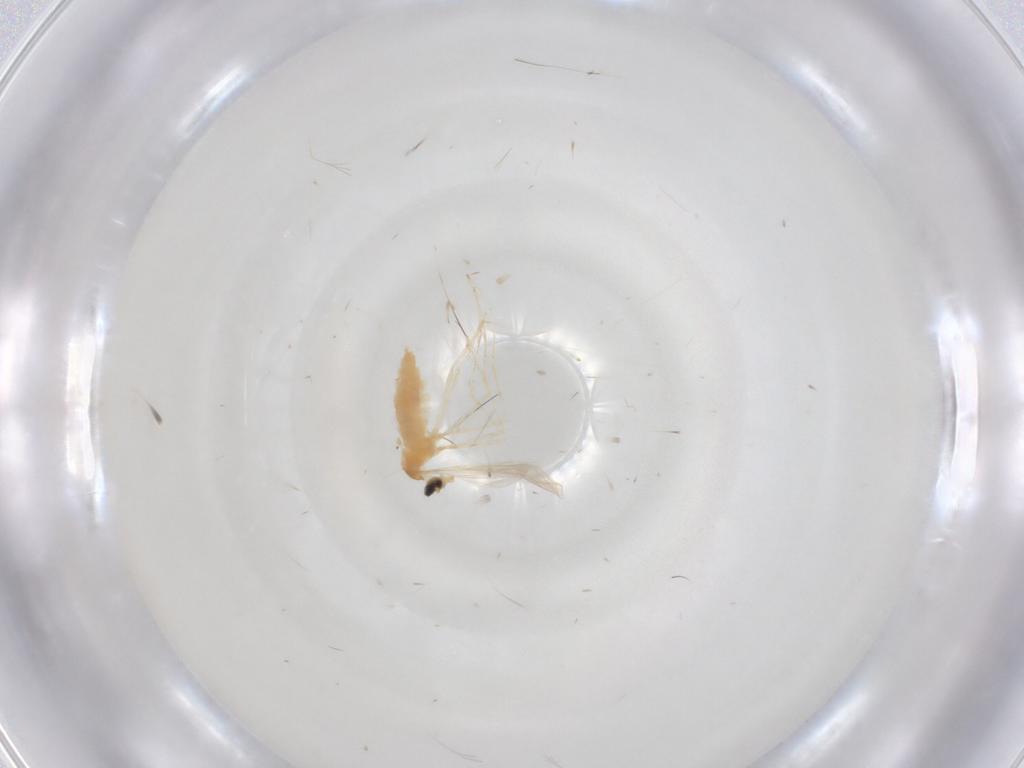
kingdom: Animalia
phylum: Arthropoda
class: Insecta
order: Diptera
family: Cecidomyiidae
